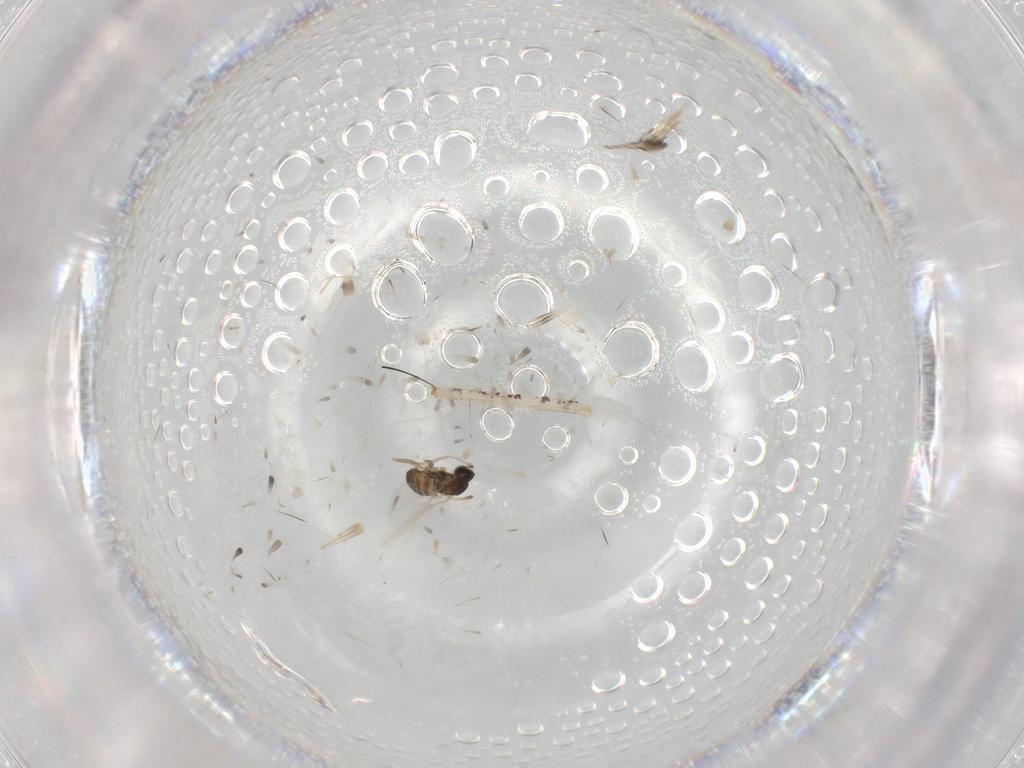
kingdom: Animalia
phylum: Arthropoda
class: Insecta
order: Diptera
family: Cecidomyiidae
